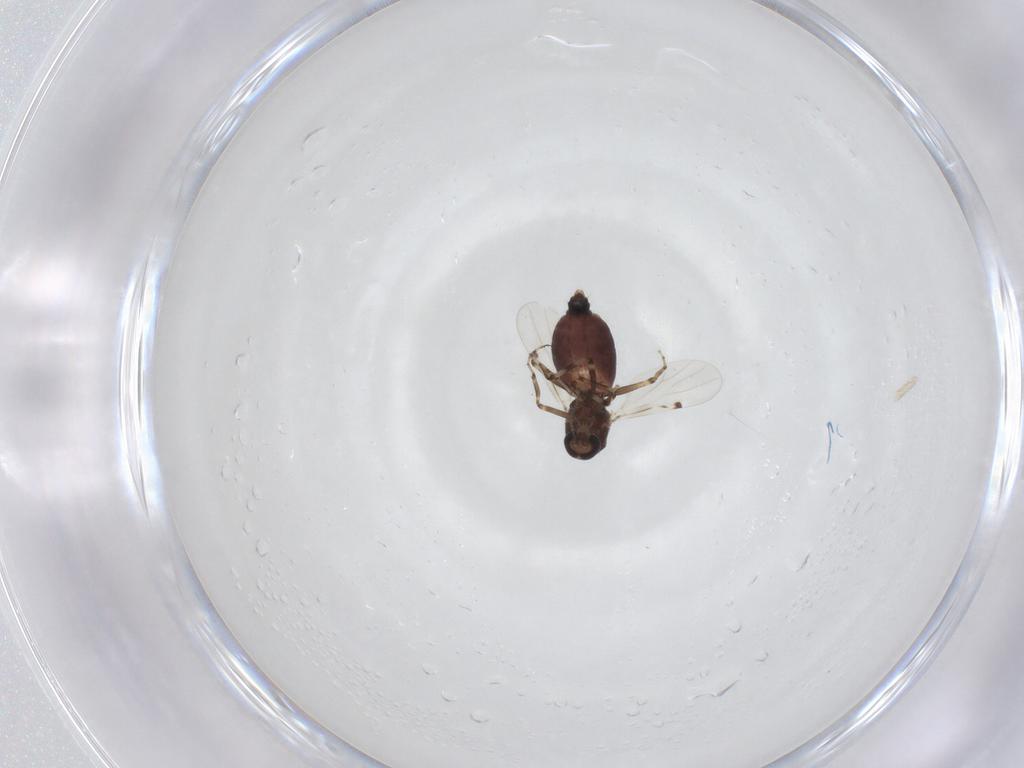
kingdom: Animalia
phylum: Arthropoda
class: Insecta
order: Diptera
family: Ceratopogonidae
